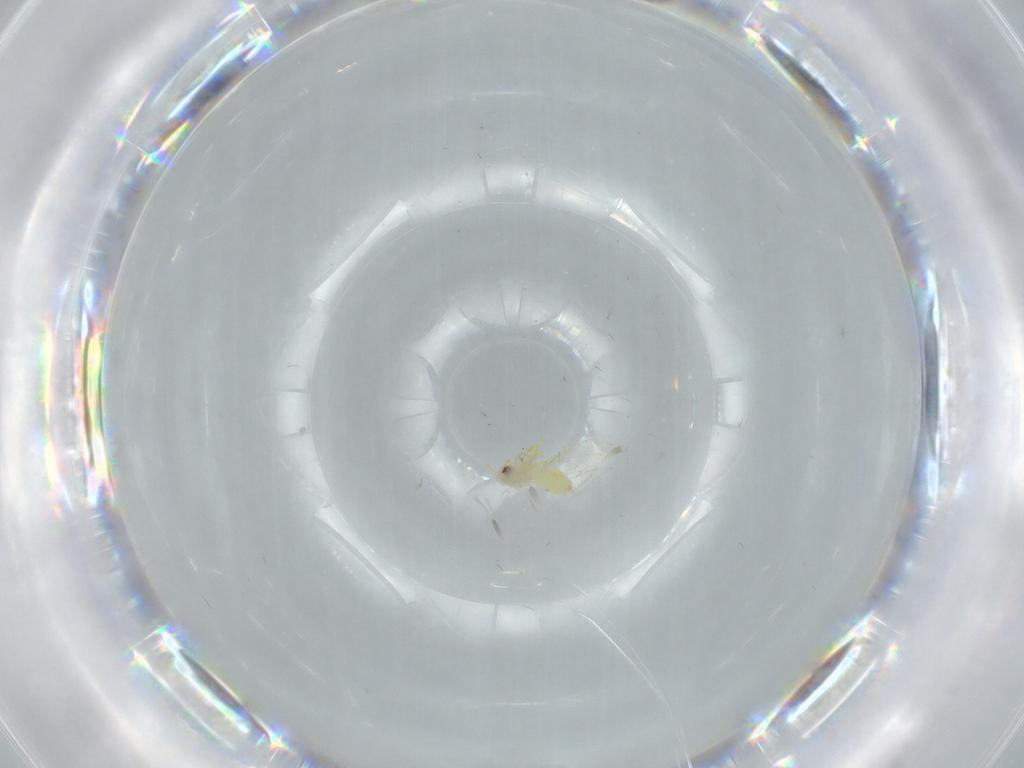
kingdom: Animalia
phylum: Arthropoda
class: Insecta
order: Hemiptera
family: Aleyrodidae
